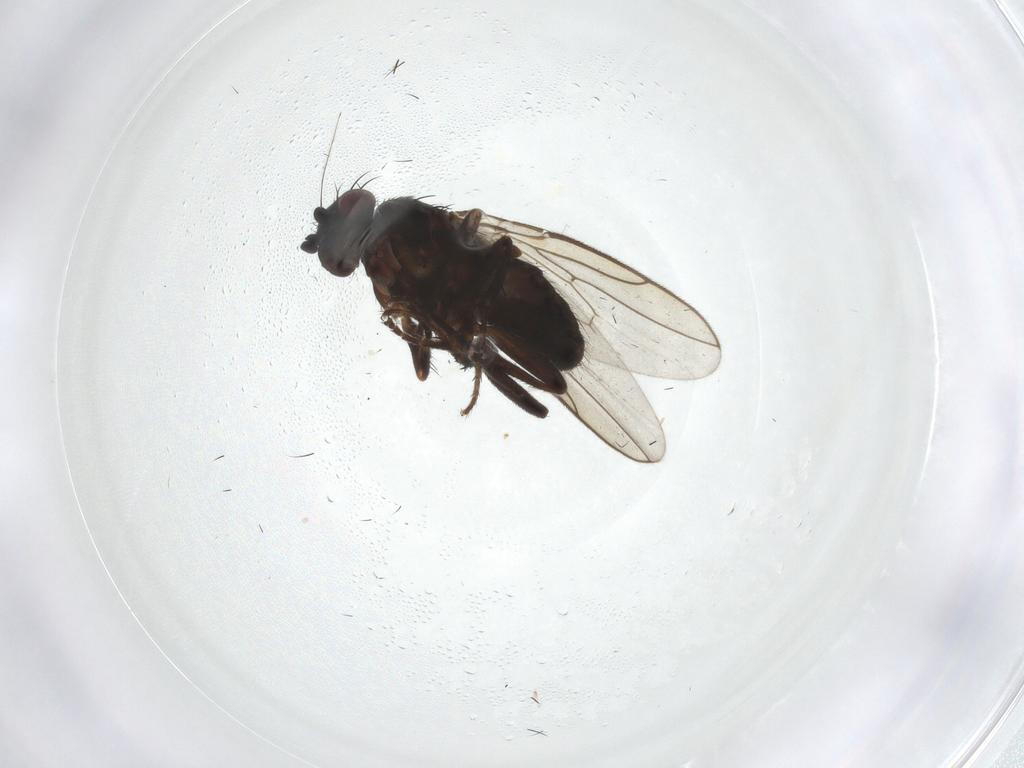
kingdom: Animalia
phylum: Arthropoda
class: Insecta
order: Diptera
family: Sphaeroceridae
